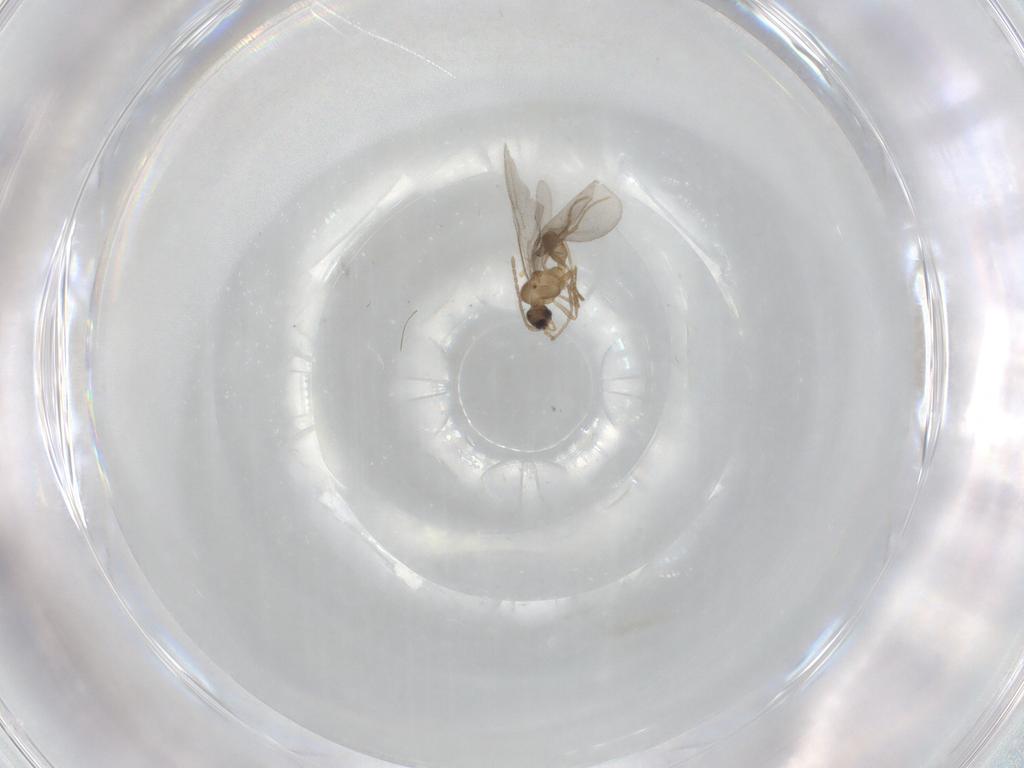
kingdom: Animalia
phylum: Arthropoda
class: Insecta
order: Hymenoptera
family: Formicidae
